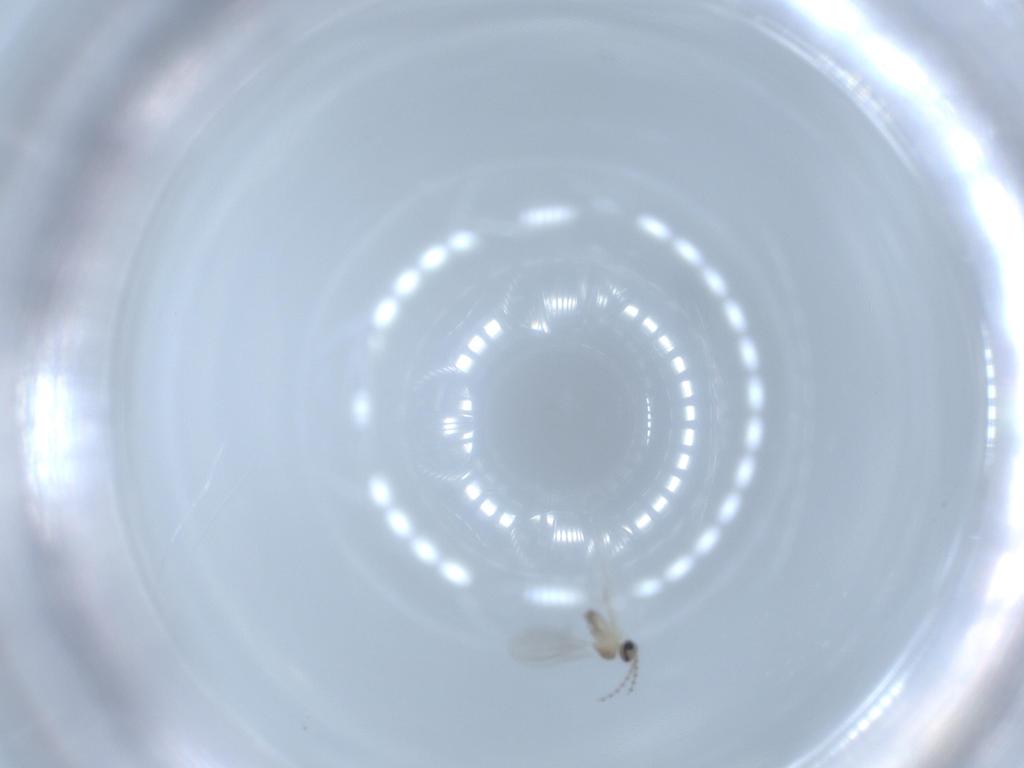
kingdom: Animalia
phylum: Arthropoda
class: Insecta
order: Diptera
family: Cecidomyiidae
